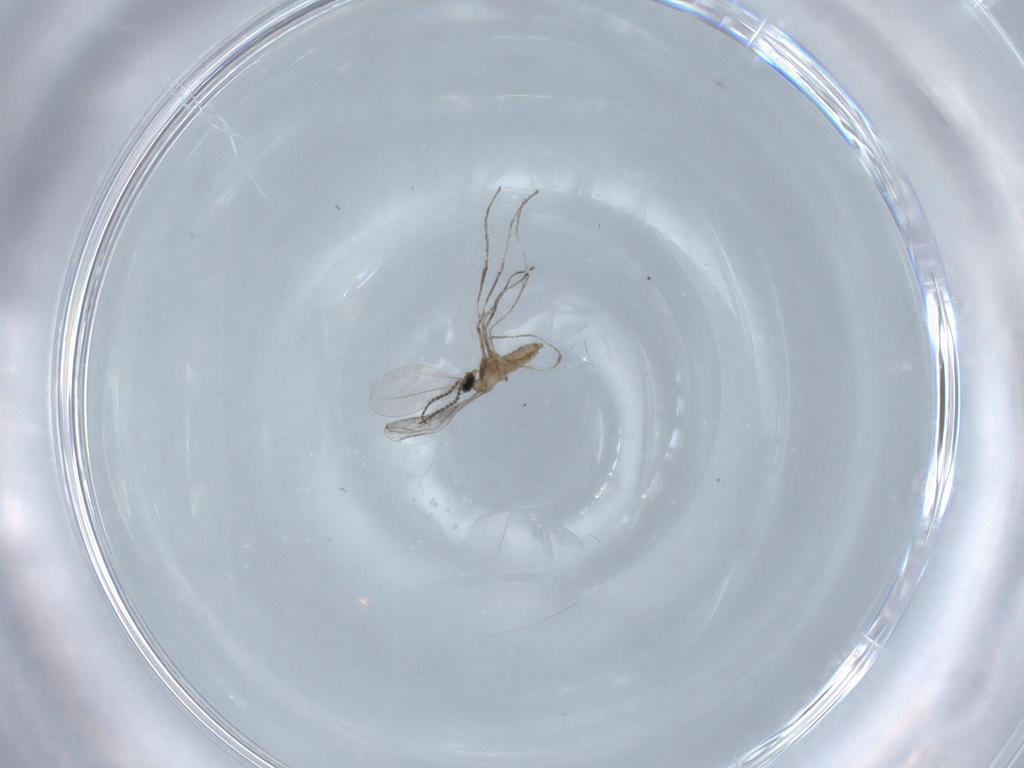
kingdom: Animalia
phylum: Arthropoda
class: Insecta
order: Diptera
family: Cecidomyiidae
